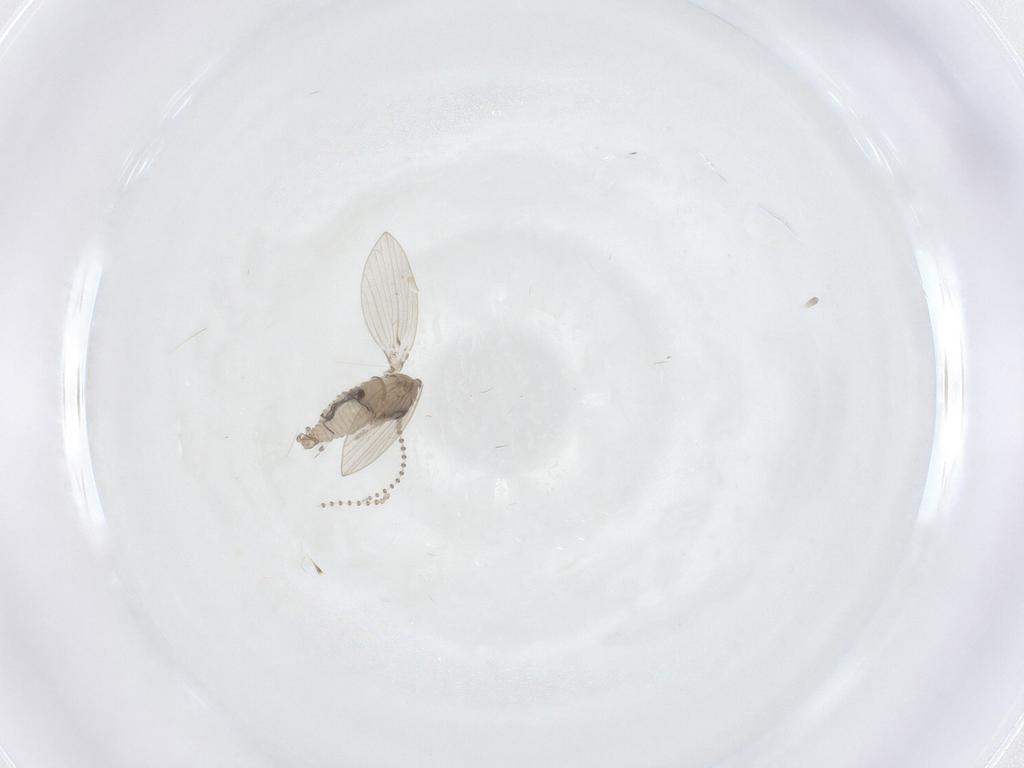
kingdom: Animalia
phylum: Arthropoda
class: Insecta
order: Diptera
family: Psychodidae
